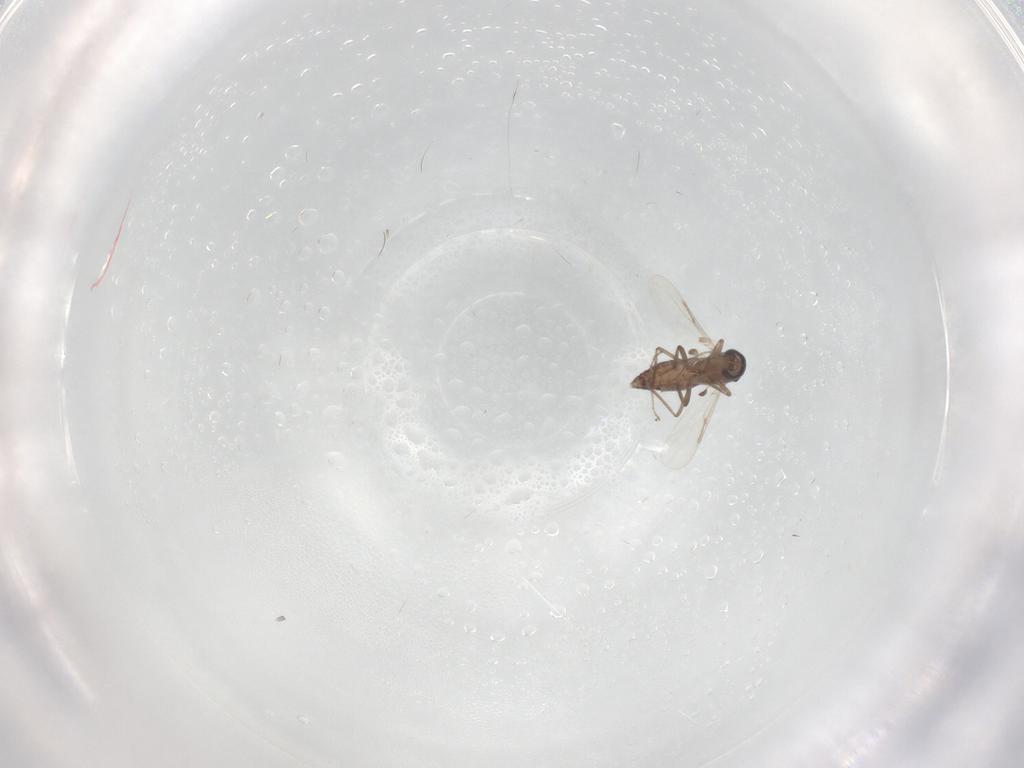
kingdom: Animalia
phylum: Arthropoda
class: Insecta
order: Diptera
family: Ceratopogonidae
